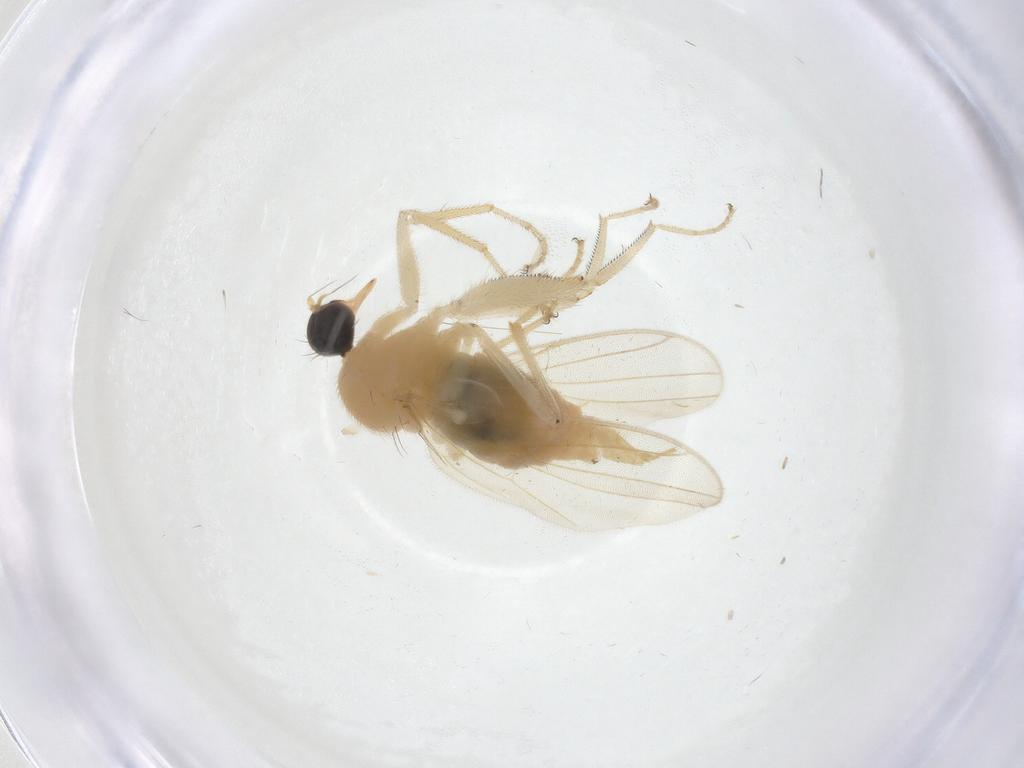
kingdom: Animalia
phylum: Arthropoda
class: Insecta
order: Diptera
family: Hybotidae
